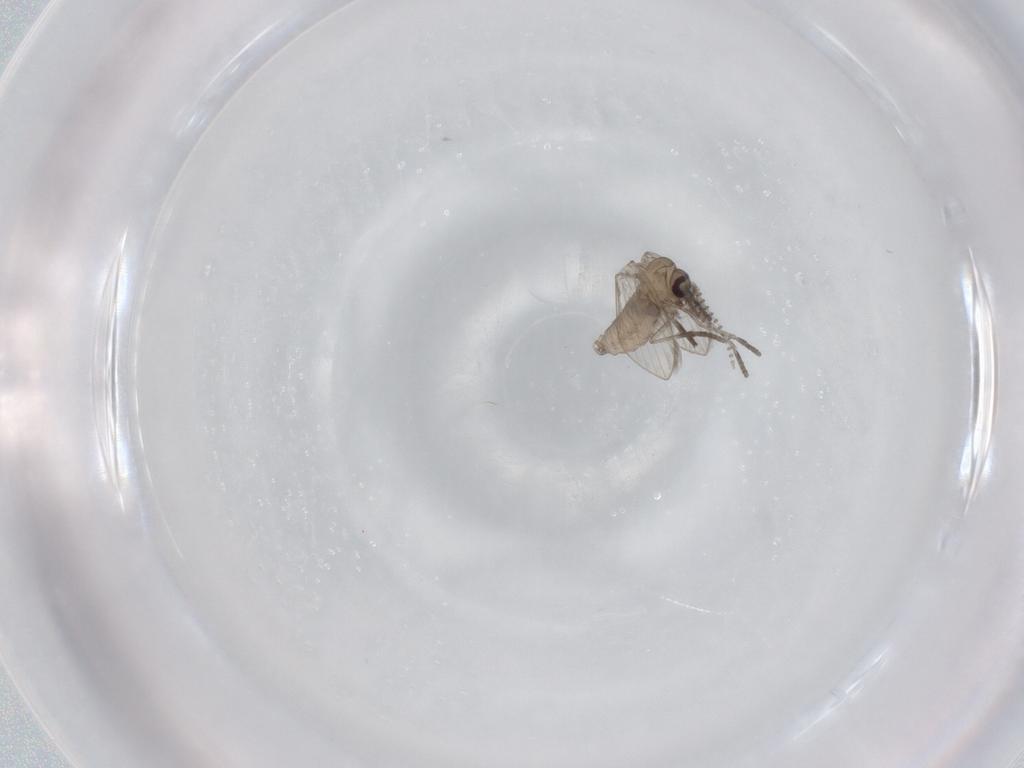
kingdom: Animalia
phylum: Arthropoda
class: Insecta
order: Diptera
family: Psychodidae
